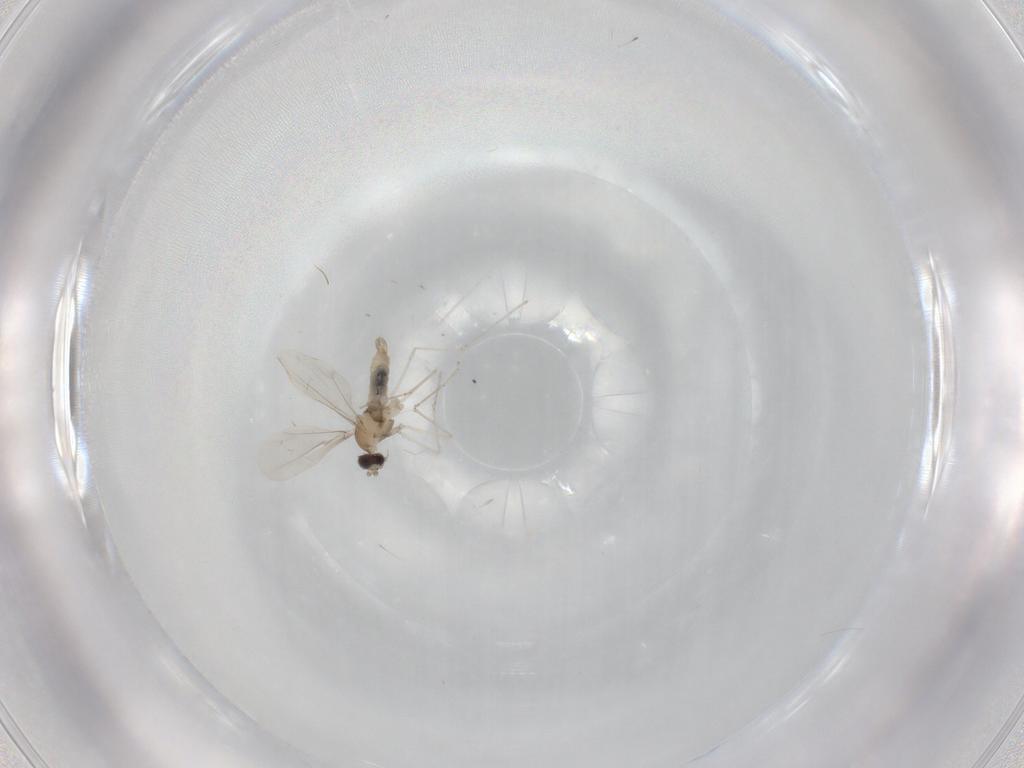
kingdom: Animalia
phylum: Arthropoda
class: Insecta
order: Diptera
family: Cecidomyiidae
